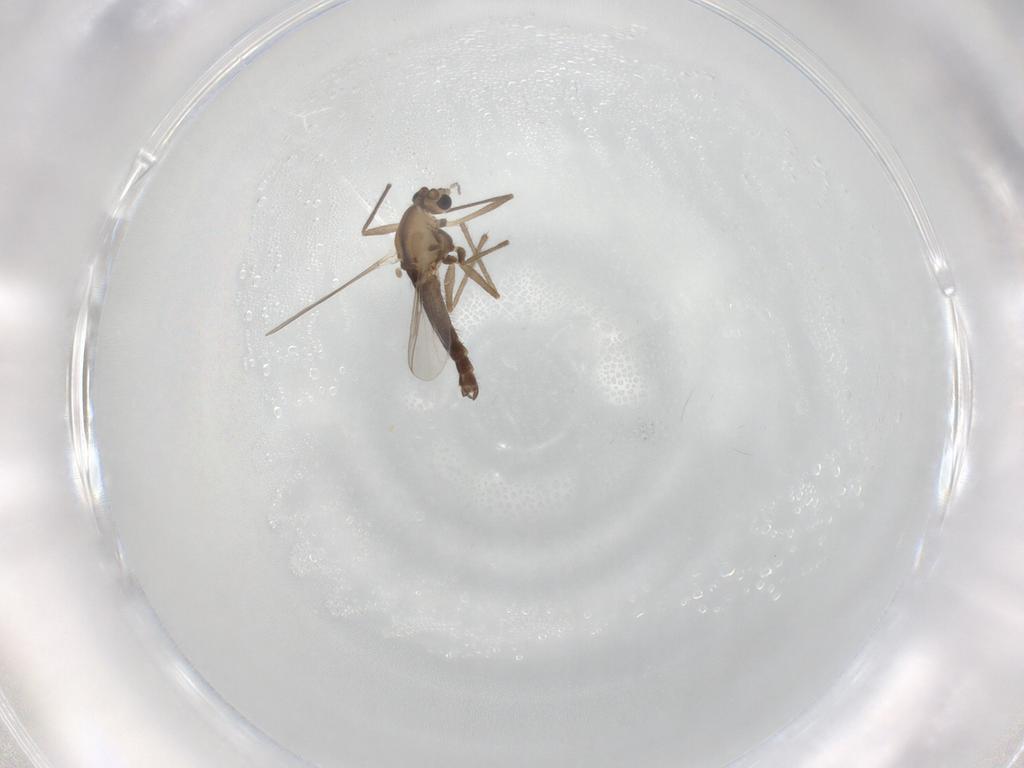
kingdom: Animalia
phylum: Arthropoda
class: Insecta
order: Diptera
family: Chironomidae
